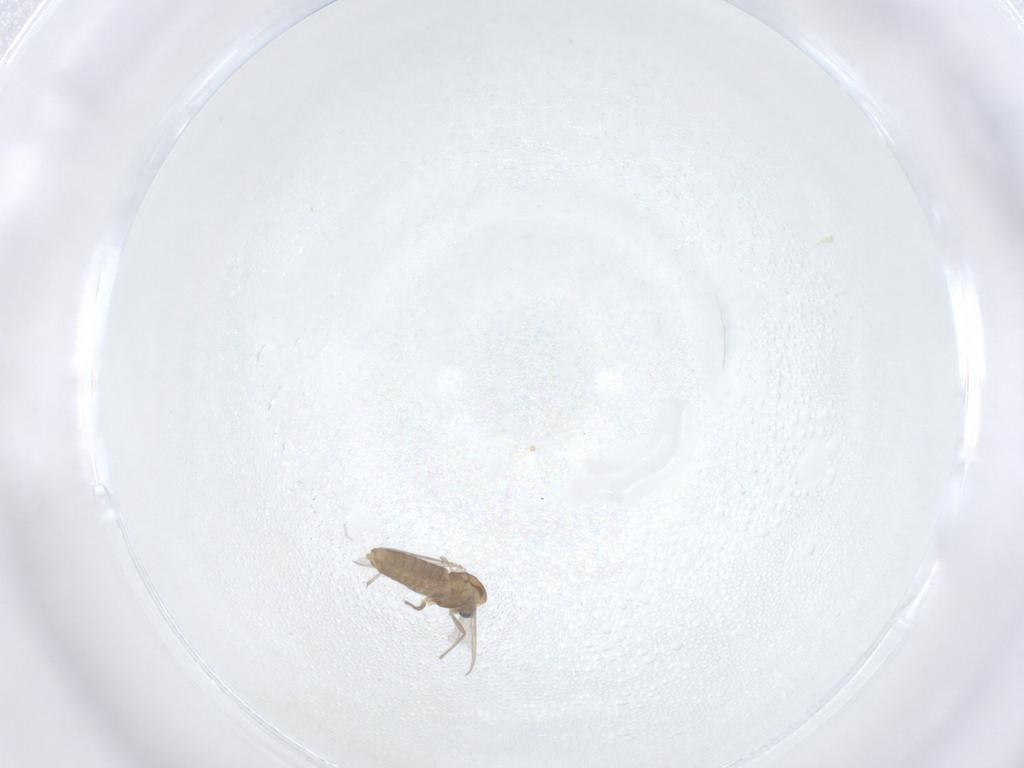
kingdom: Animalia
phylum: Arthropoda
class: Insecta
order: Diptera
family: Chironomidae
